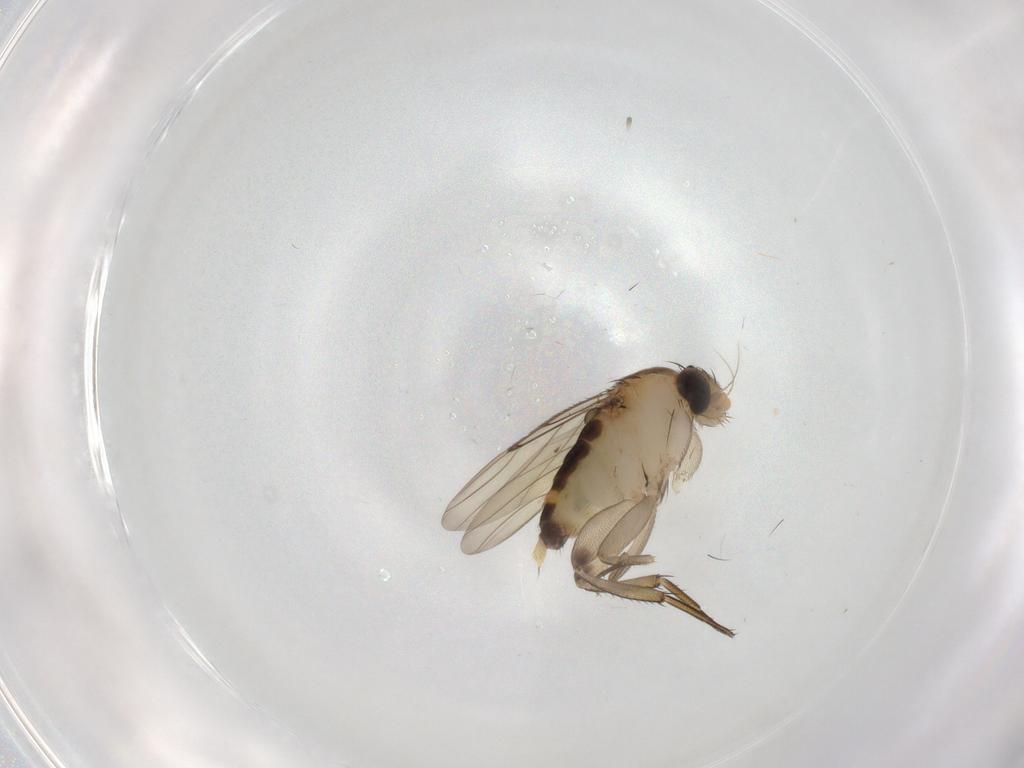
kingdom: Animalia
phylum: Arthropoda
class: Insecta
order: Diptera
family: Phoridae
